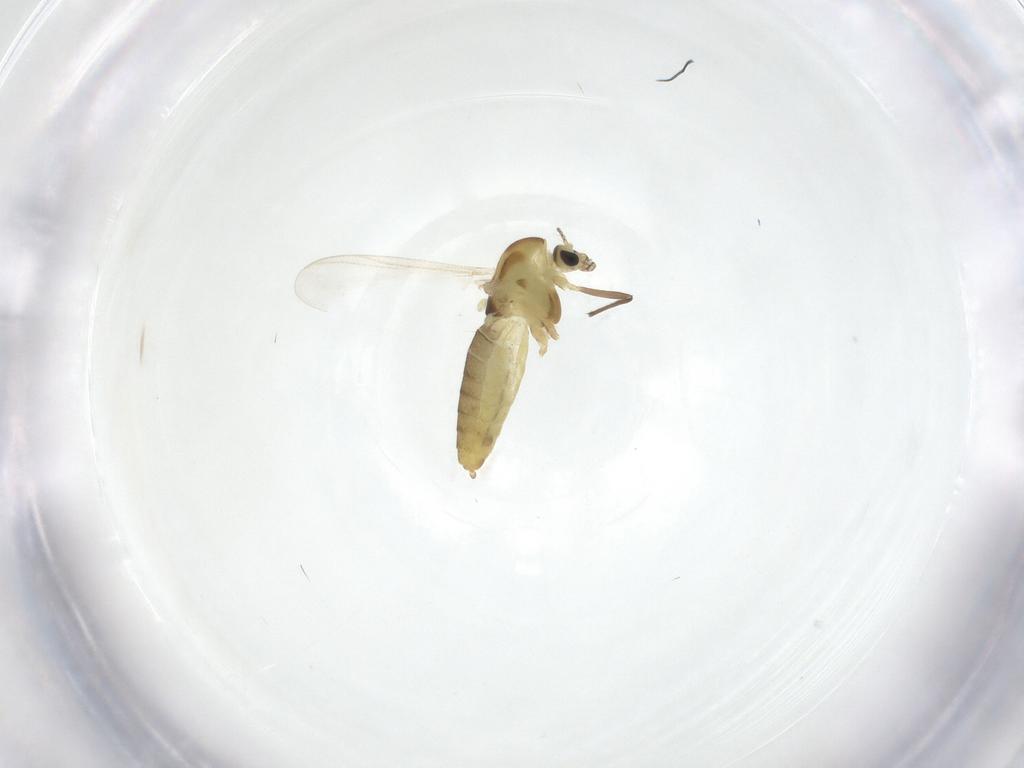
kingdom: Animalia
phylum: Arthropoda
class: Insecta
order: Diptera
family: Chironomidae
